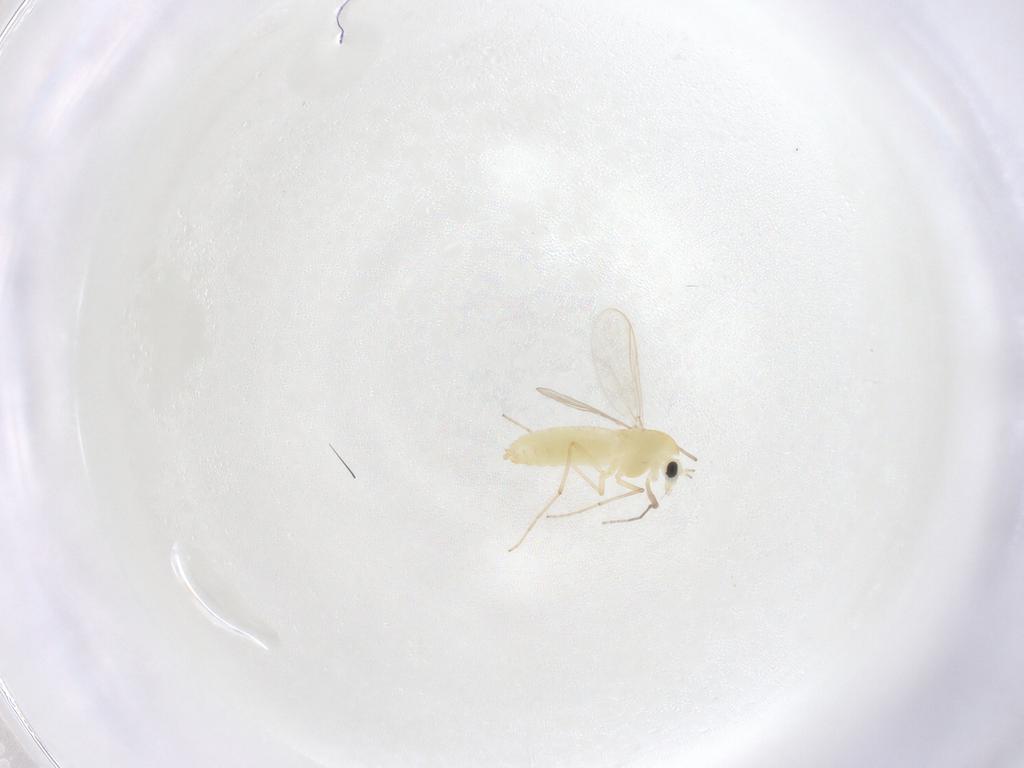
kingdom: Animalia
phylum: Arthropoda
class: Insecta
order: Diptera
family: Chironomidae
